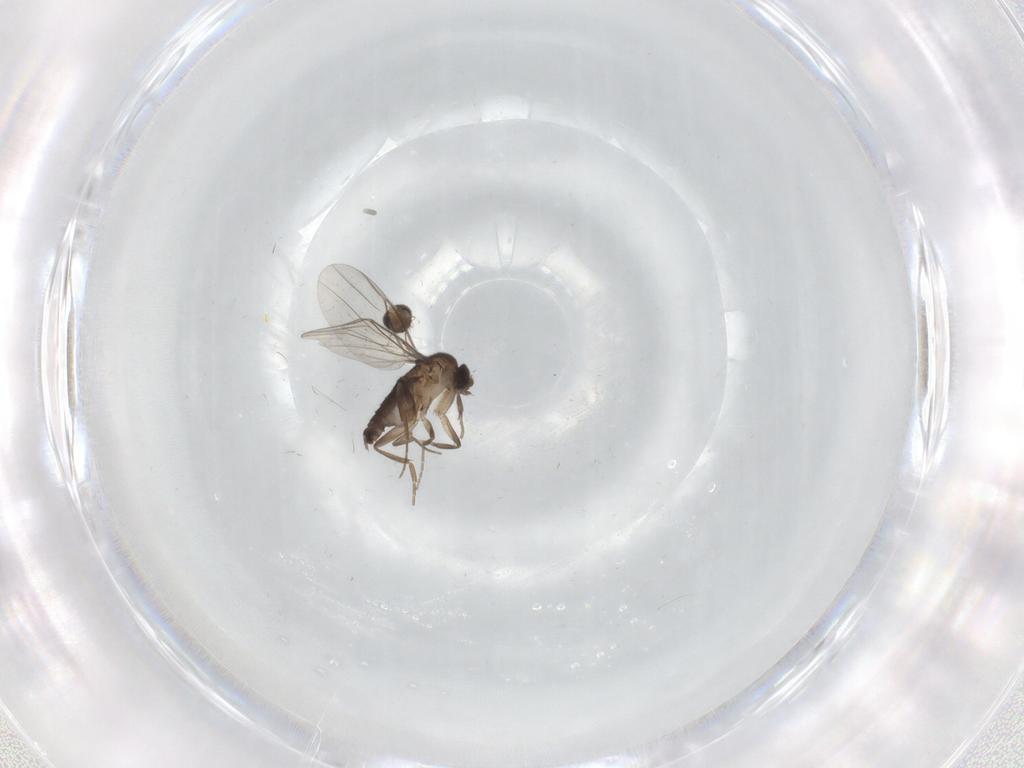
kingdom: Animalia
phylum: Arthropoda
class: Insecta
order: Diptera
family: Phoridae
